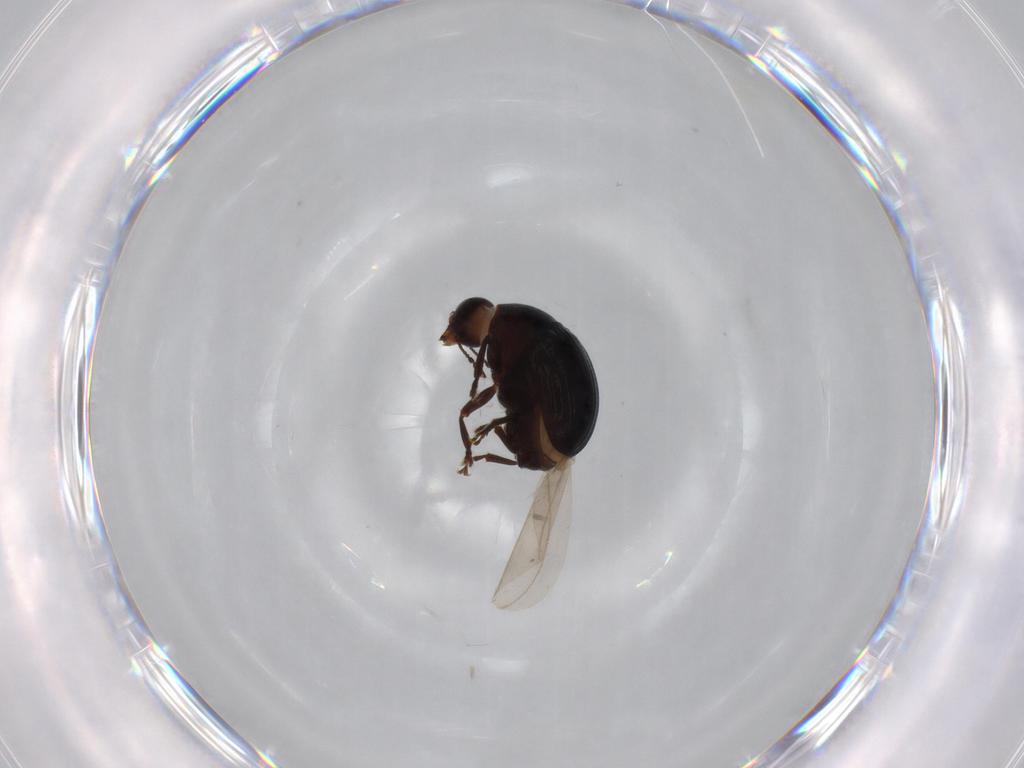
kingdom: Animalia
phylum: Arthropoda
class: Insecta
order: Coleoptera
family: Anthribidae
